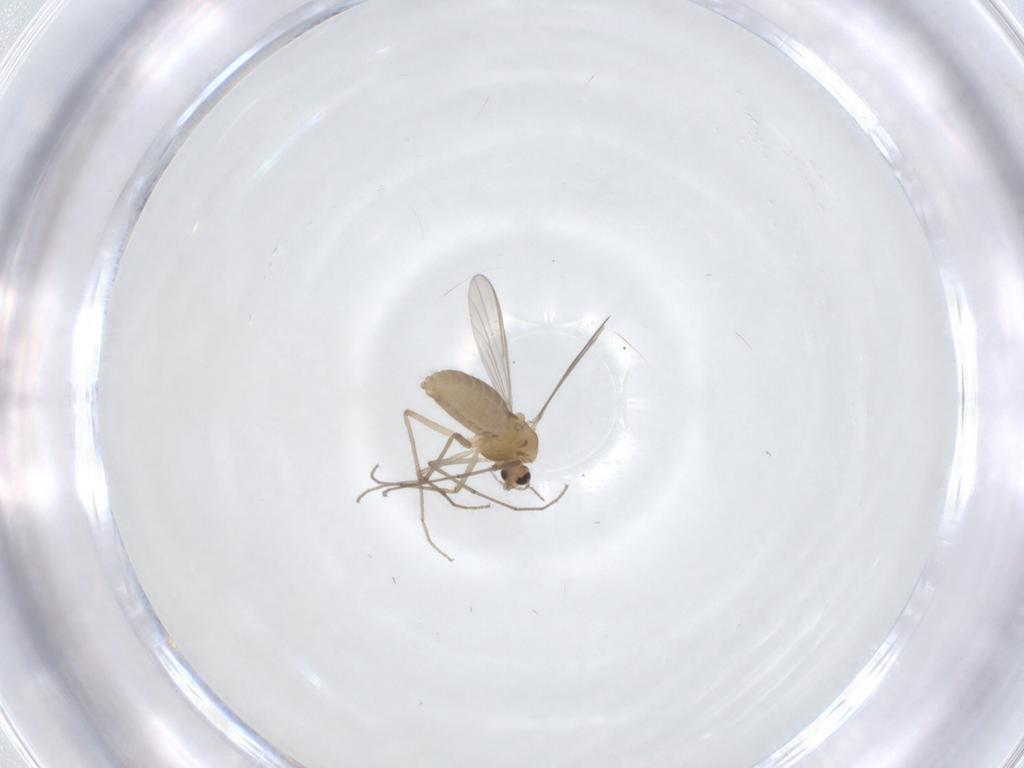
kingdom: Animalia
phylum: Arthropoda
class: Insecta
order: Diptera
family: Chironomidae
